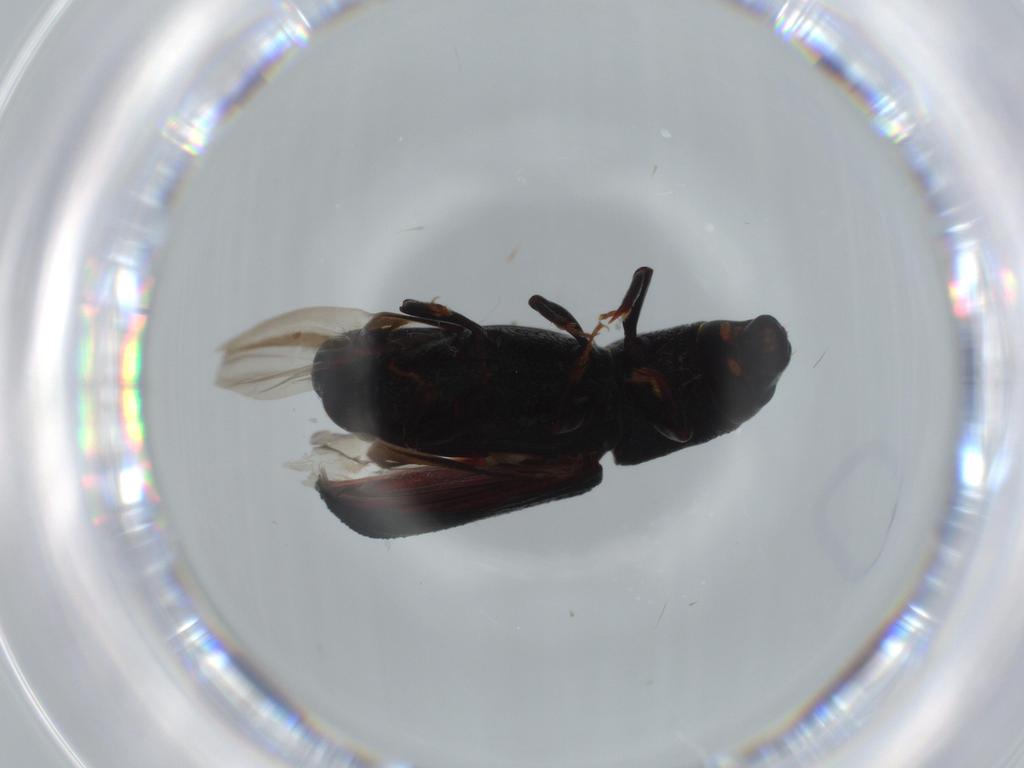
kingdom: Animalia
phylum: Arthropoda
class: Insecta
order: Coleoptera
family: Curculionidae
